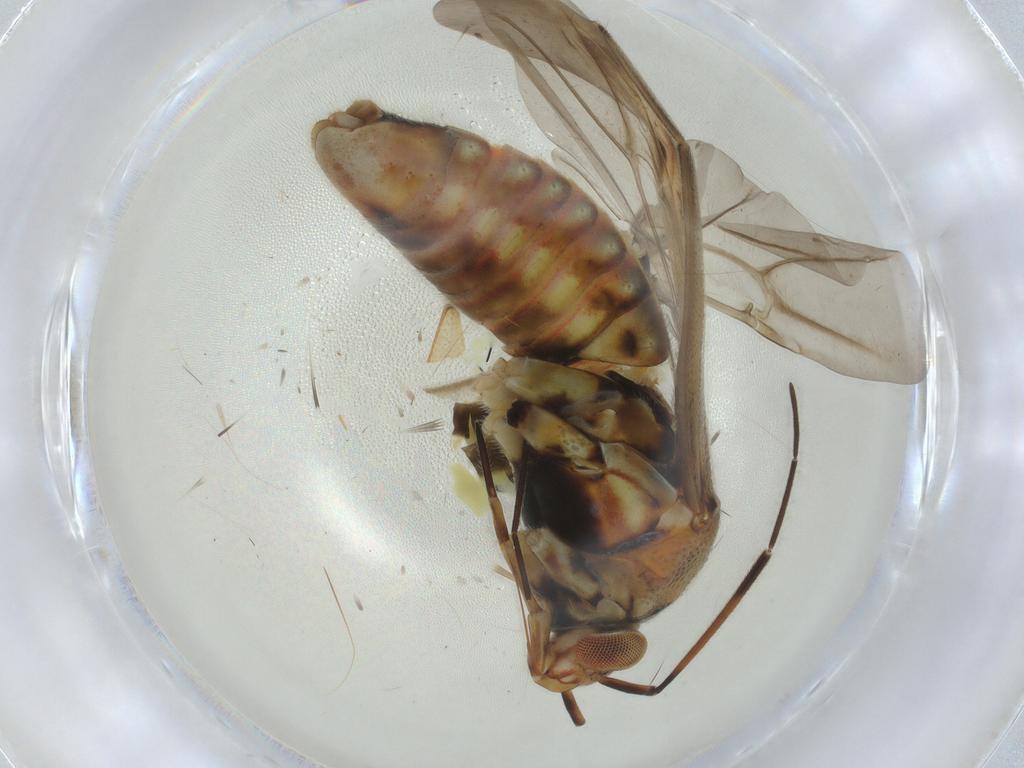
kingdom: Animalia
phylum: Arthropoda
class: Insecta
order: Hemiptera
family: Miridae
